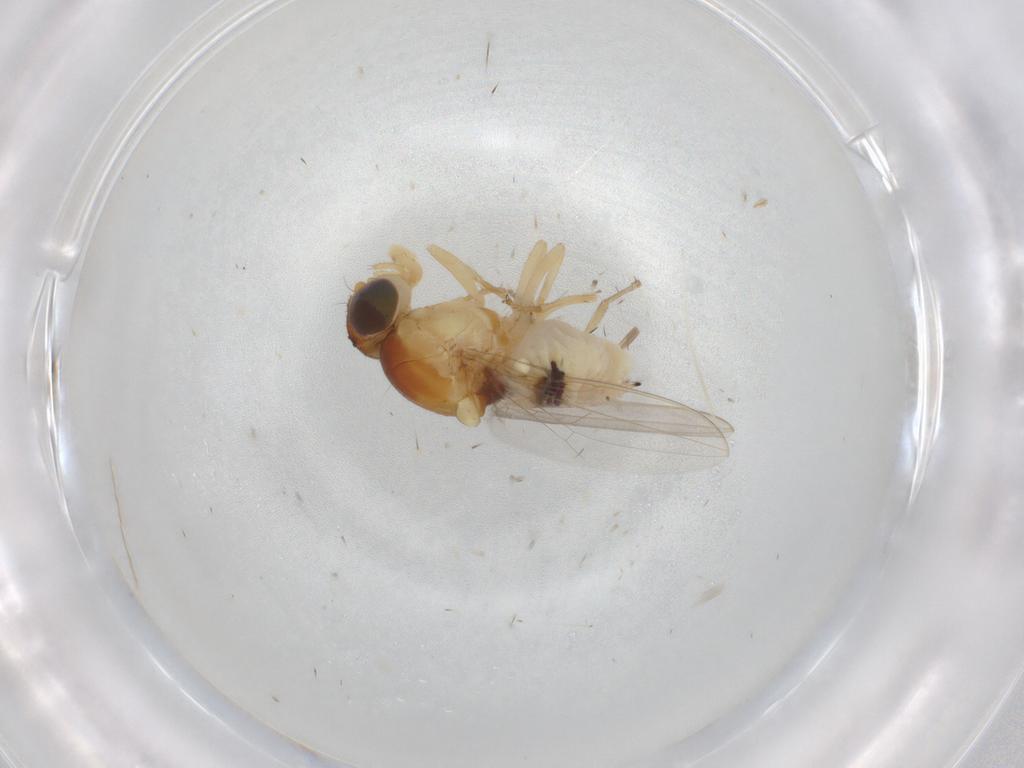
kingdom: Animalia
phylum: Arthropoda
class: Insecta
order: Diptera
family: Asteiidae
